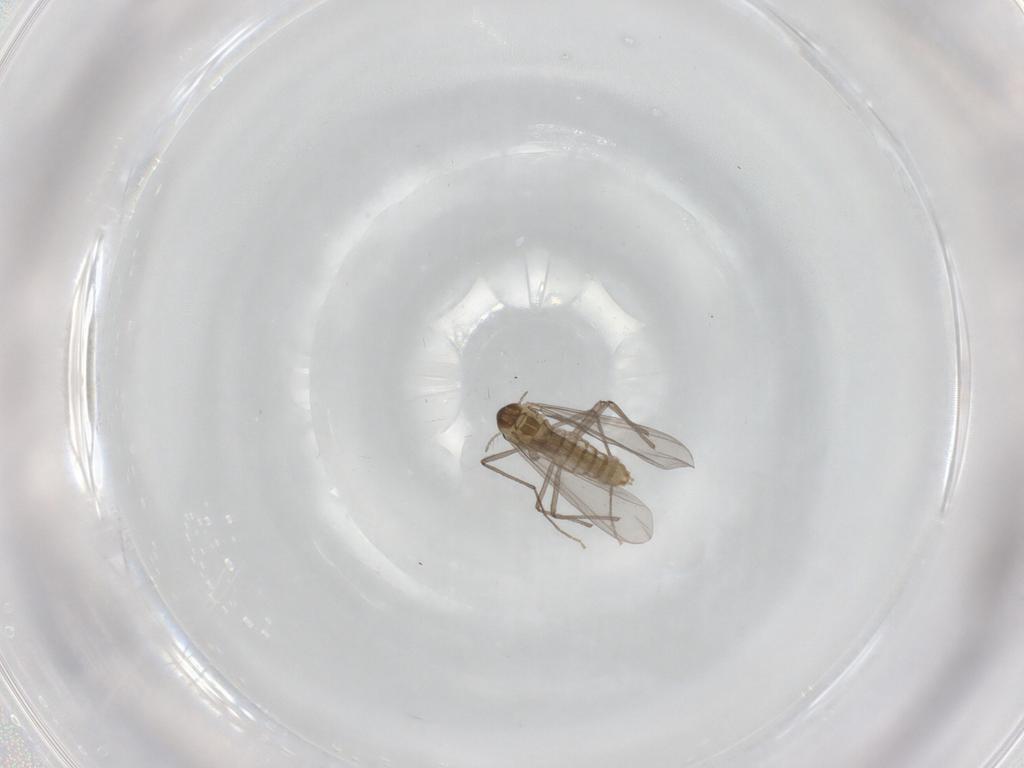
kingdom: Animalia
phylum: Arthropoda
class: Insecta
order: Diptera
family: Chironomidae
